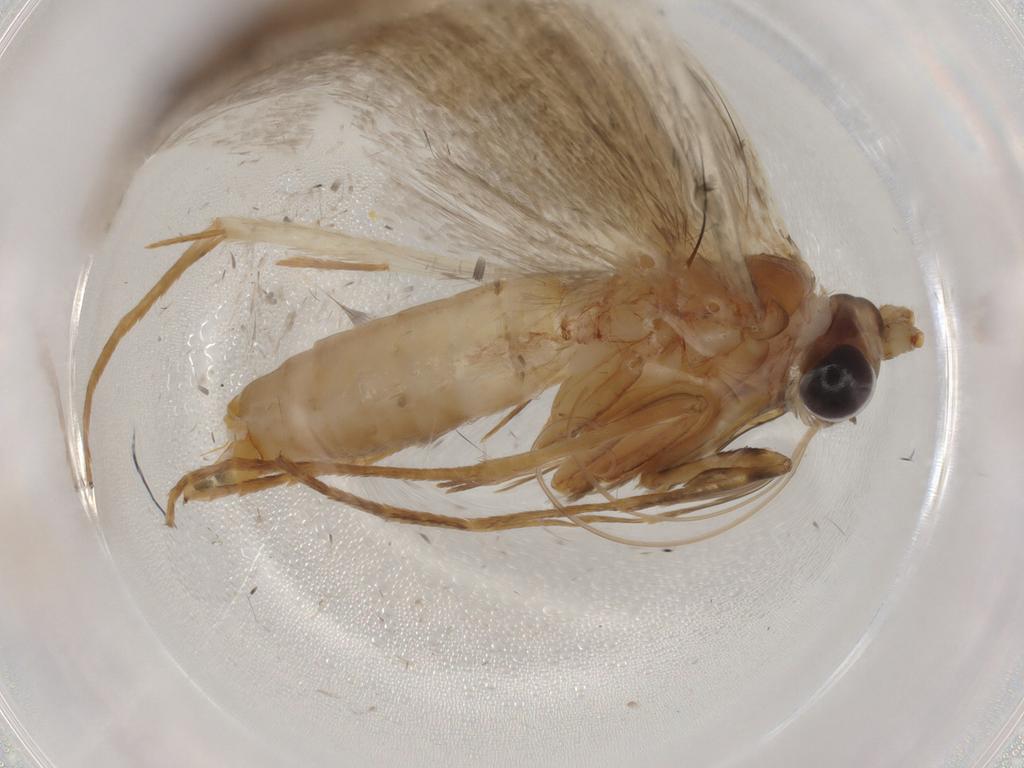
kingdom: Animalia
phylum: Arthropoda
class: Insecta
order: Lepidoptera
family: Adelidae
